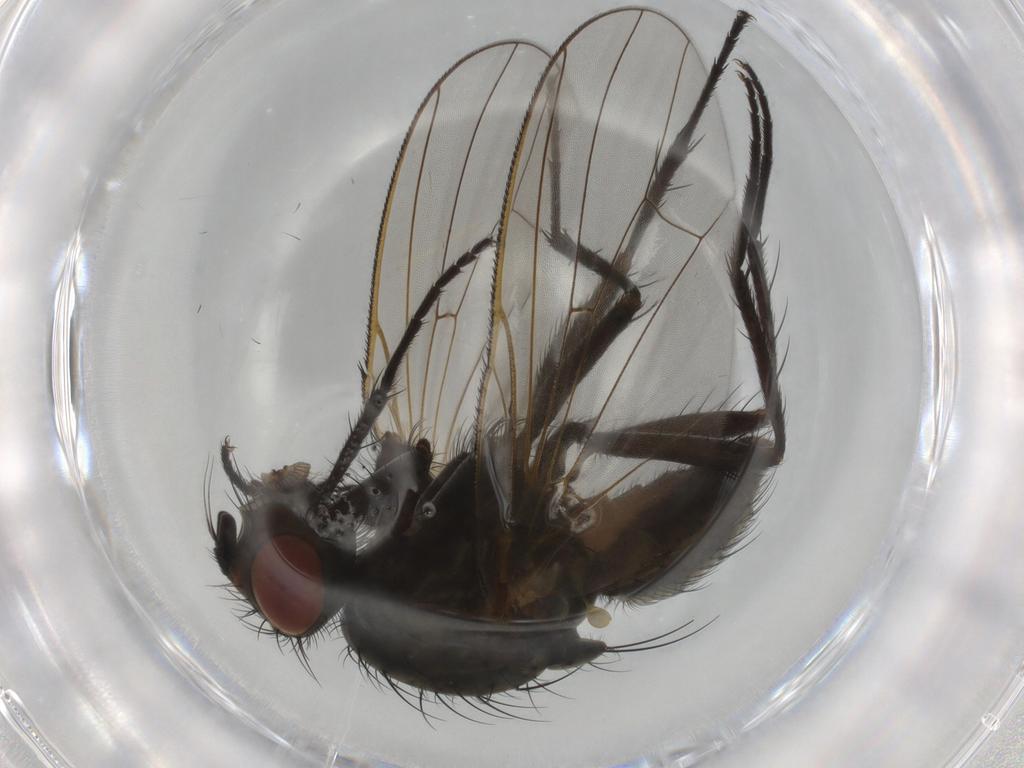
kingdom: Animalia
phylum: Arthropoda
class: Insecta
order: Diptera
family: Anthomyiidae
